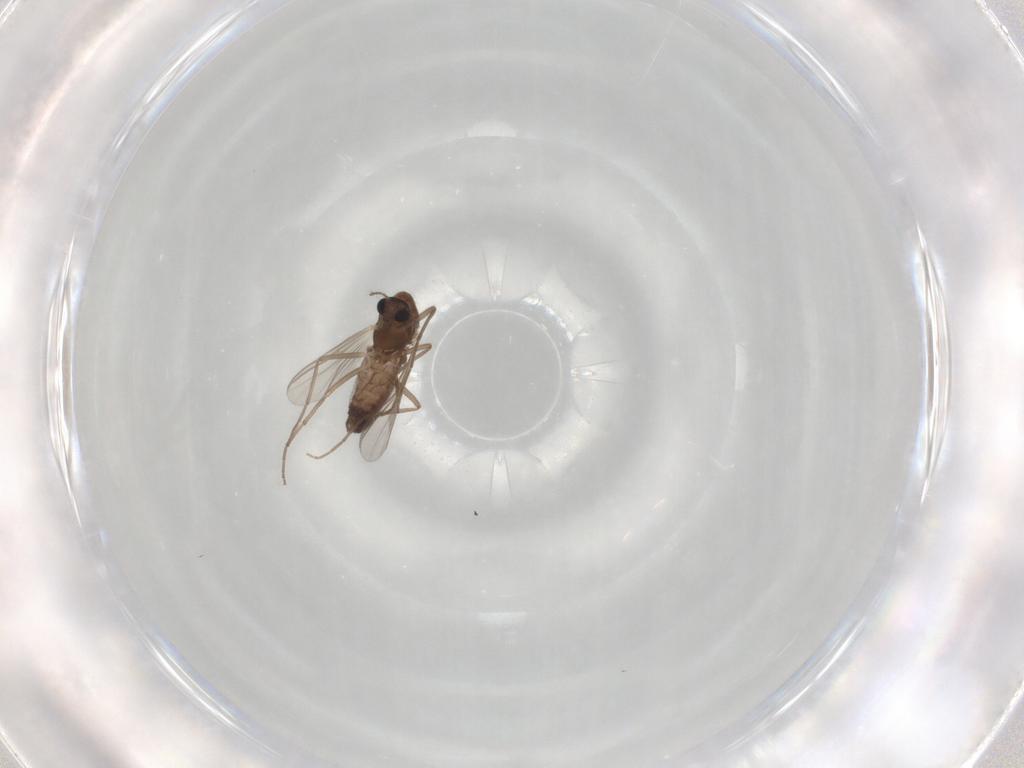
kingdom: Animalia
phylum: Arthropoda
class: Insecta
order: Diptera
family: Chironomidae
